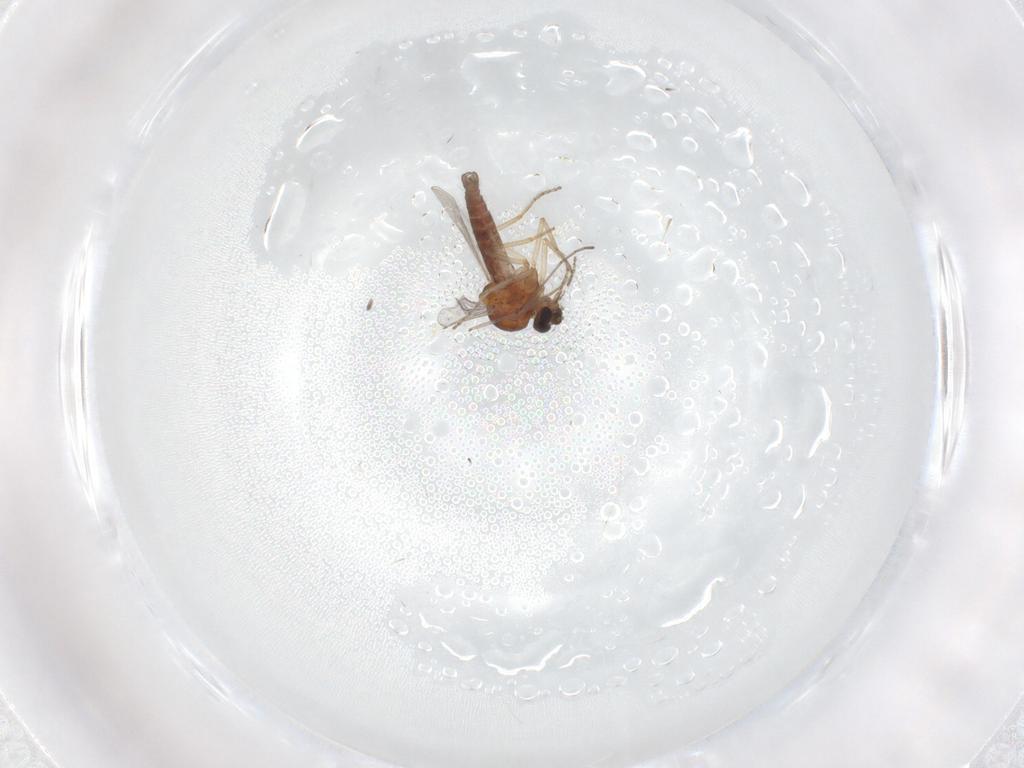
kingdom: Animalia
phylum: Arthropoda
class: Insecta
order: Diptera
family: Ceratopogonidae
